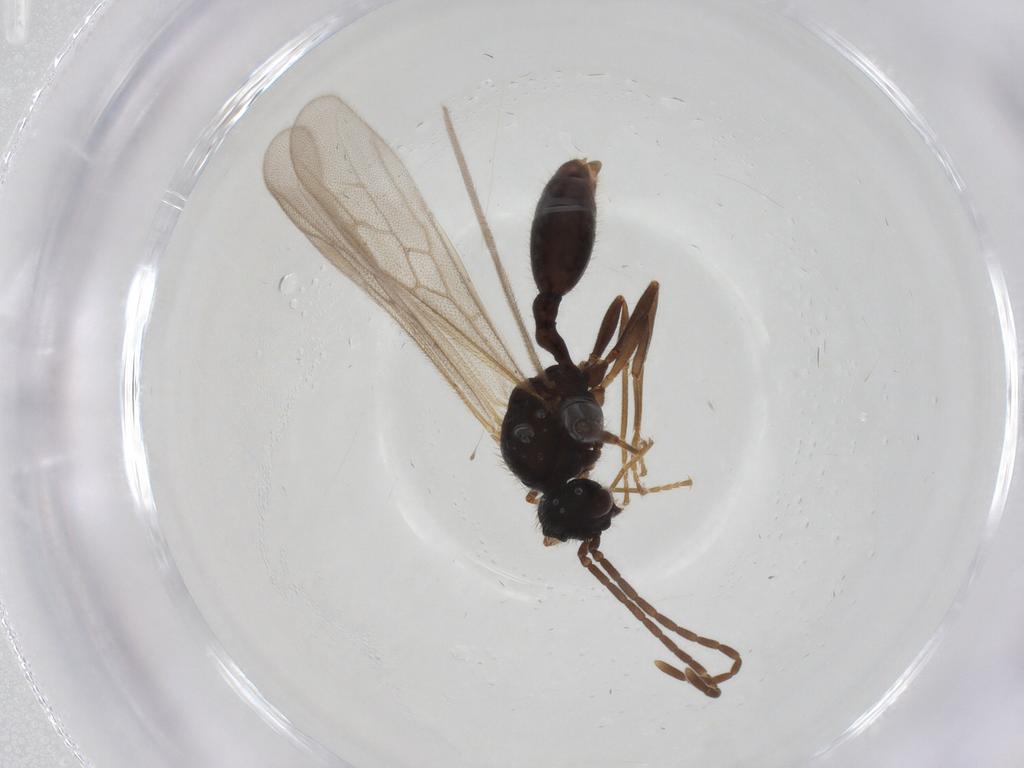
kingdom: Animalia
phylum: Arthropoda
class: Insecta
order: Hymenoptera
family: Formicidae
